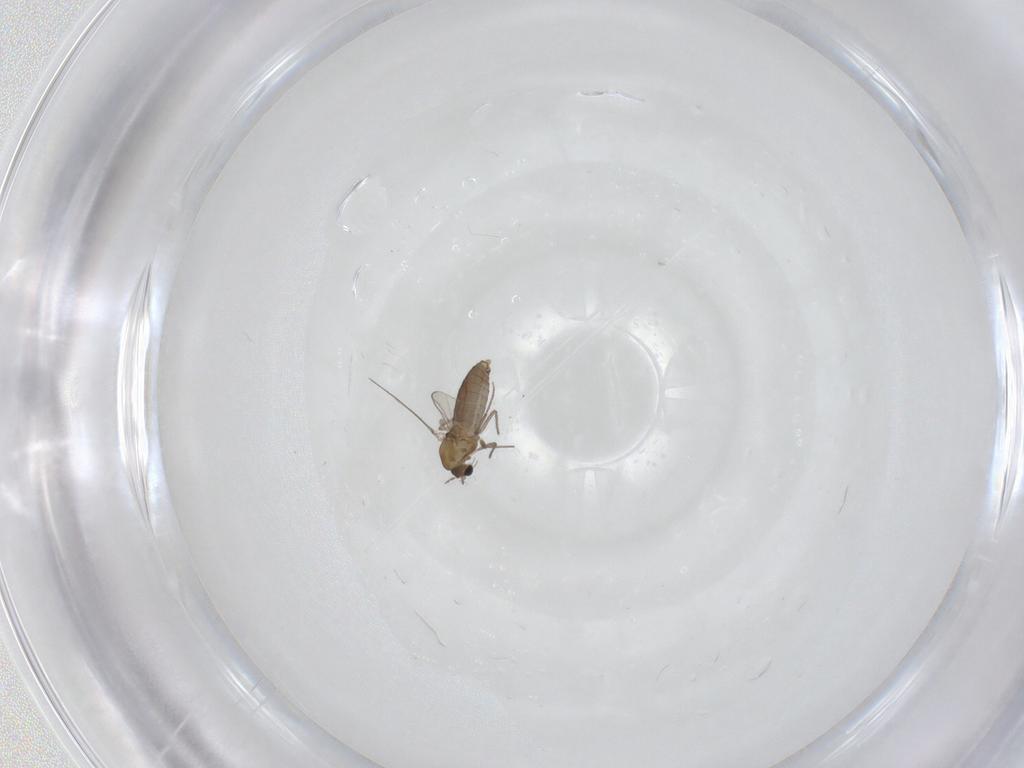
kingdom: Animalia
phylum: Arthropoda
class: Insecta
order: Diptera
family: Chironomidae
